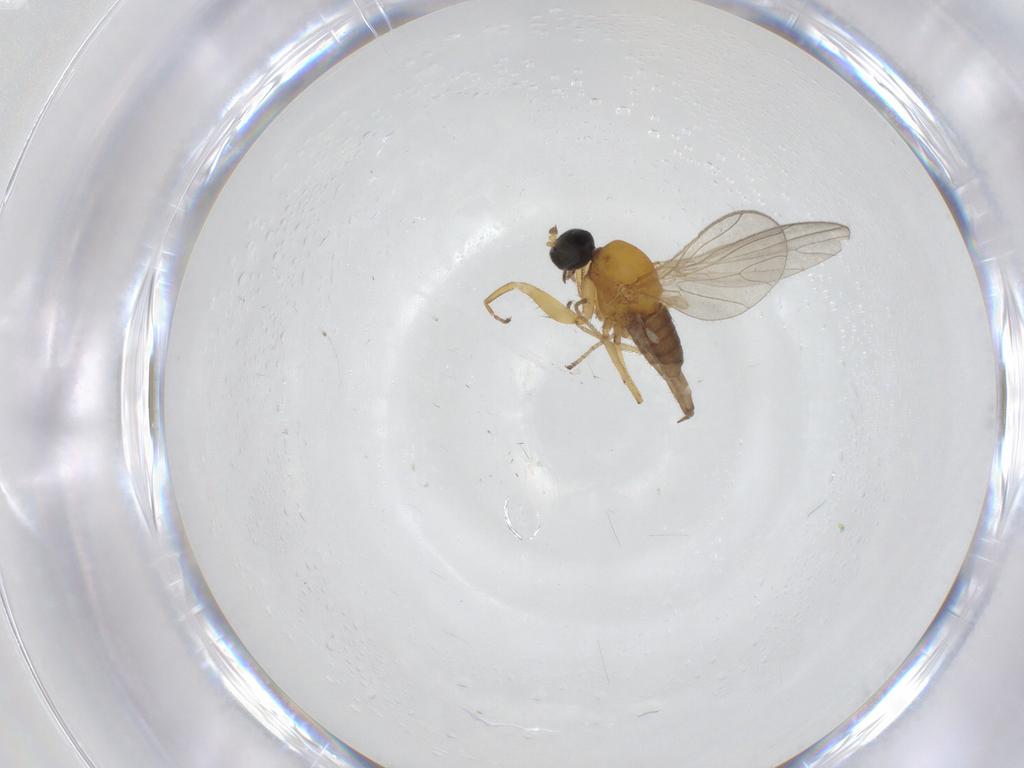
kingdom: Animalia
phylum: Arthropoda
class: Insecta
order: Diptera
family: Empididae
